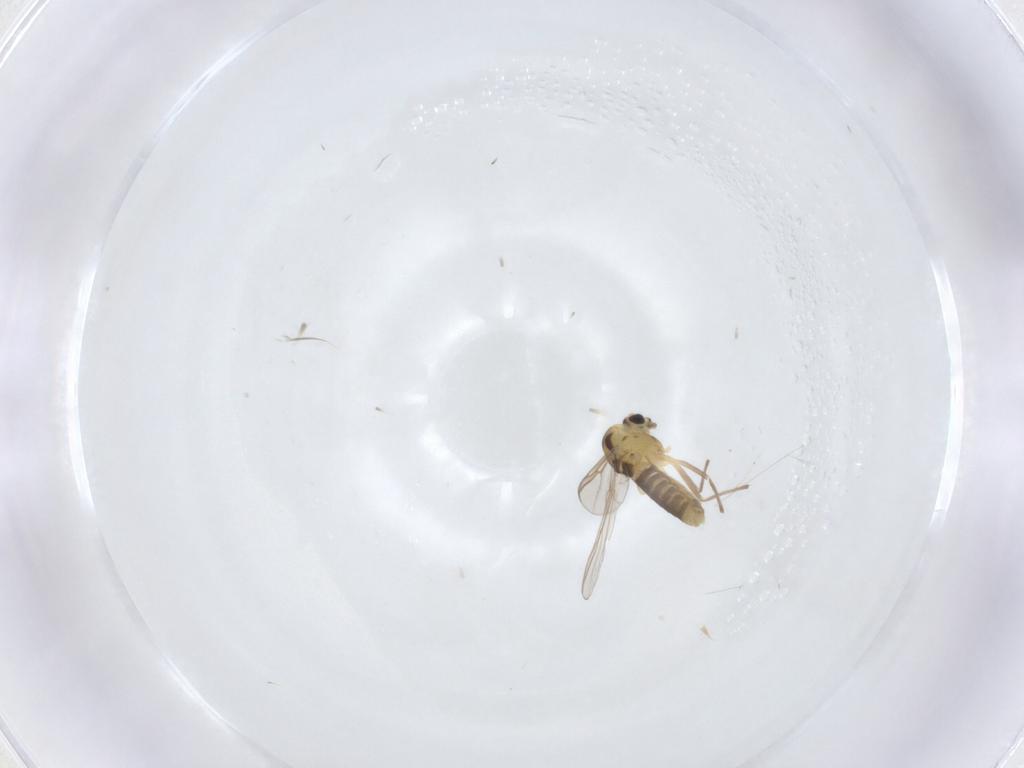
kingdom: Animalia
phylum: Arthropoda
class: Insecta
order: Diptera
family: Chironomidae
